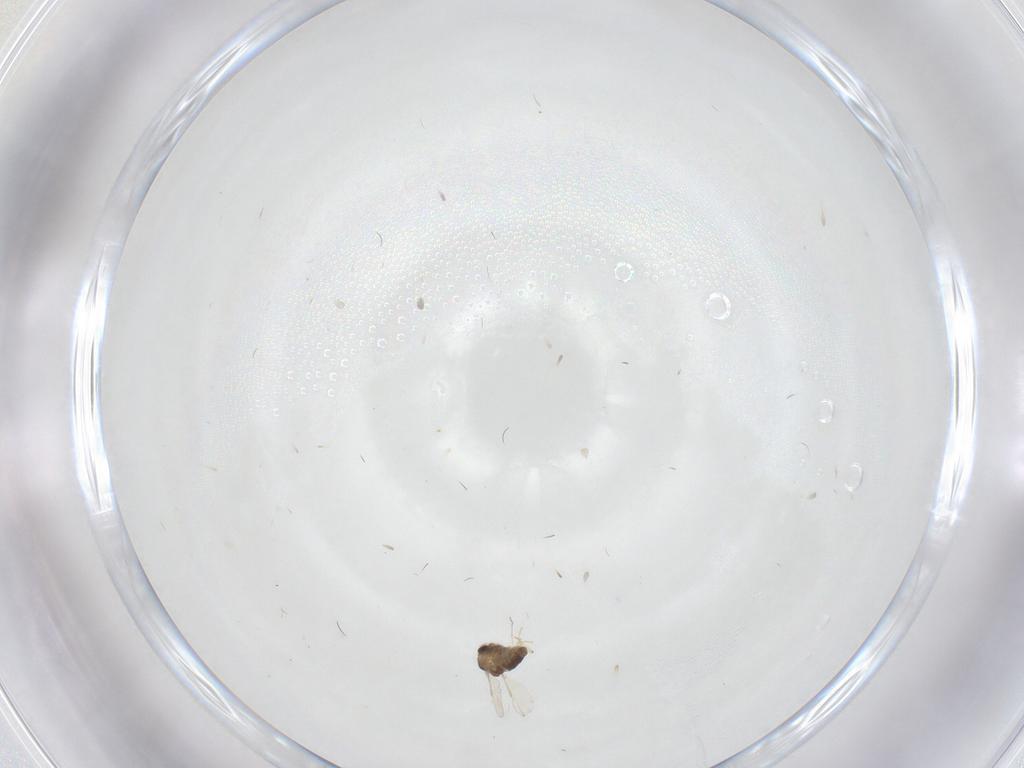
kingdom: Animalia
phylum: Arthropoda
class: Insecta
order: Diptera
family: Chironomidae
